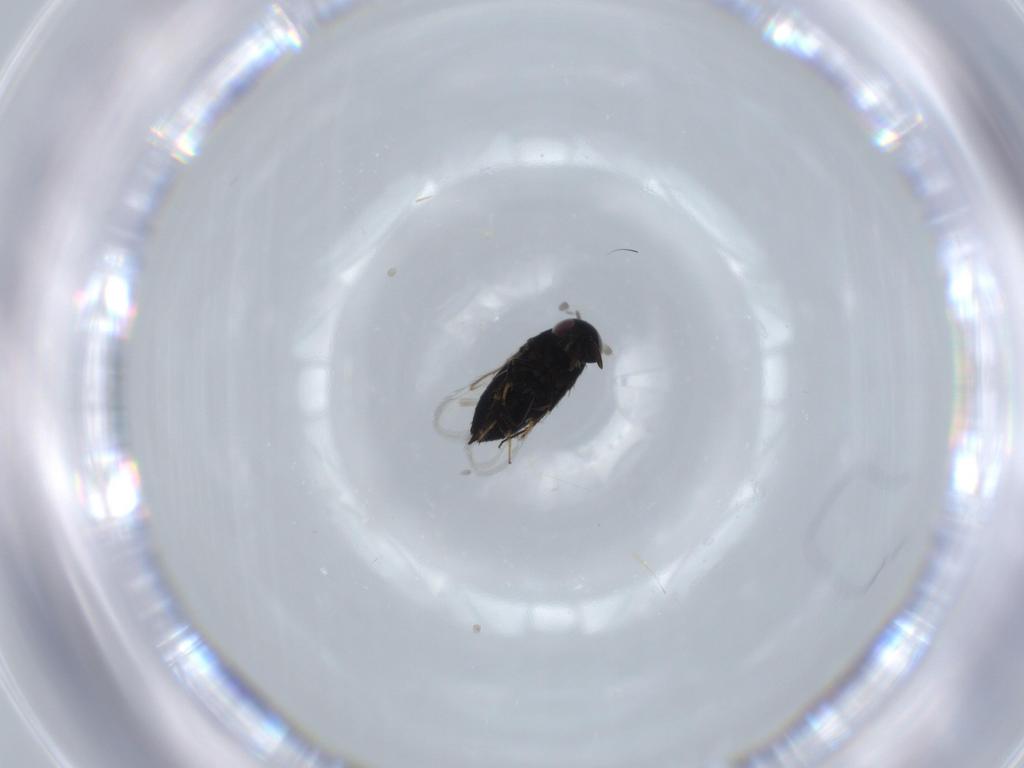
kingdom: Animalia
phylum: Arthropoda
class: Insecta
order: Hymenoptera
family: Signiphoridae
